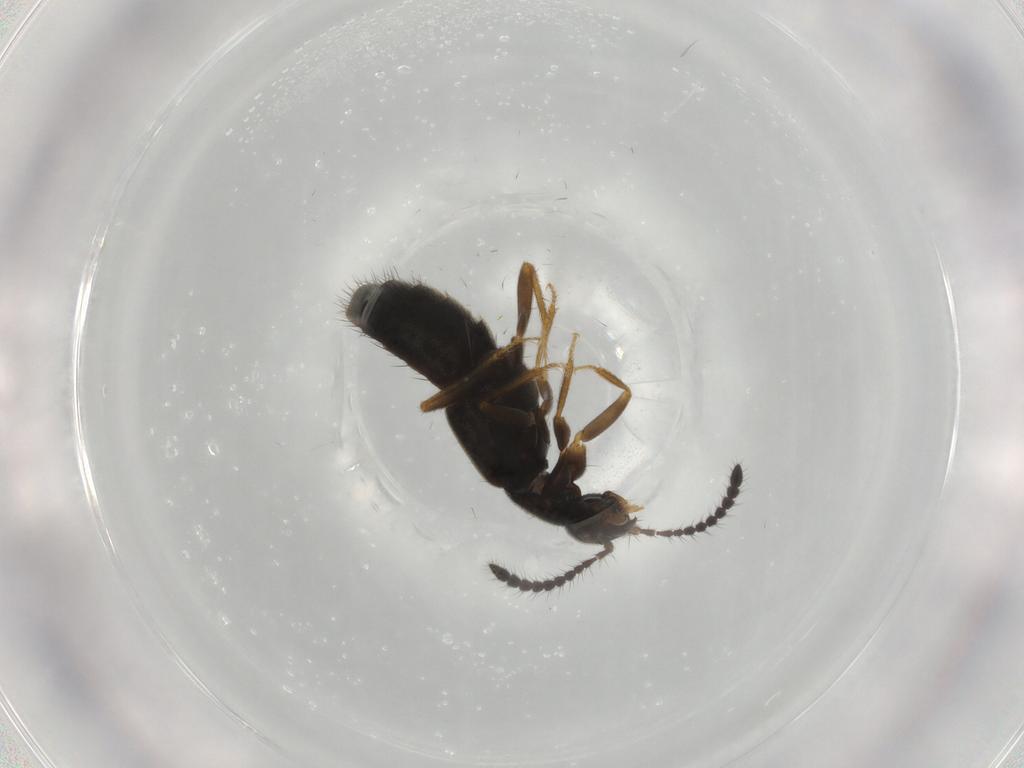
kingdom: Animalia
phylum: Arthropoda
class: Insecta
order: Coleoptera
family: Staphylinidae
